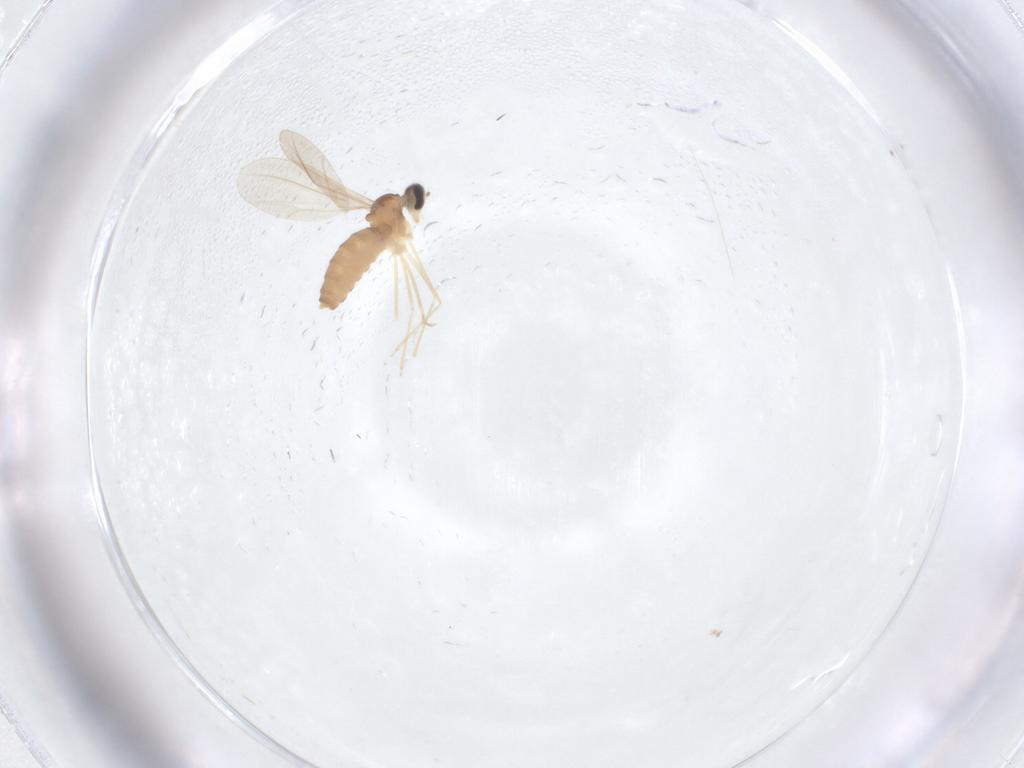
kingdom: Animalia
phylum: Arthropoda
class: Insecta
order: Diptera
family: Cecidomyiidae
